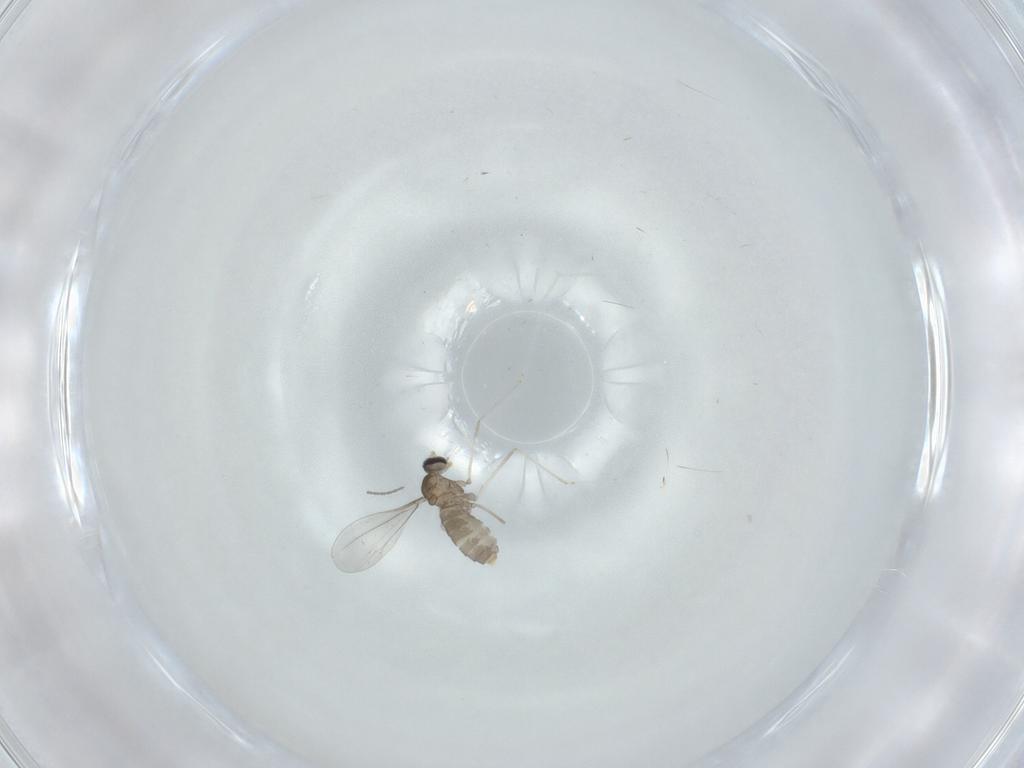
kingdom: Animalia
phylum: Arthropoda
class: Insecta
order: Diptera
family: Cecidomyiidae
